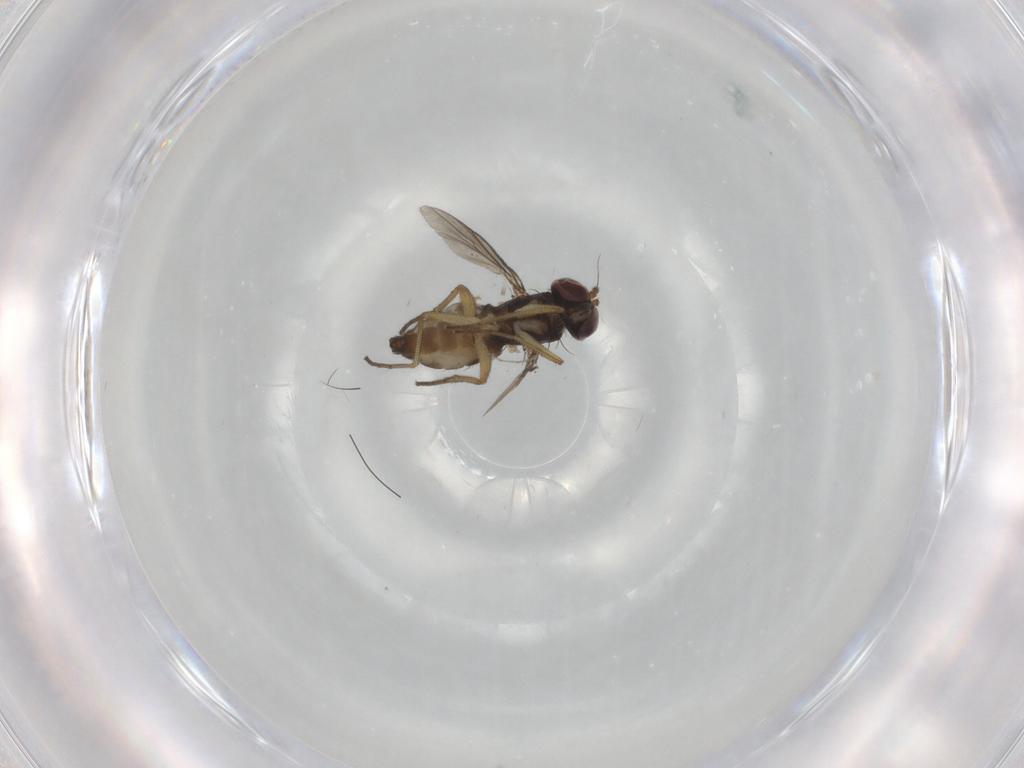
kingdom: Animalia
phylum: Arthropoda
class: Insecta
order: Diptera
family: Dolichopodidae
